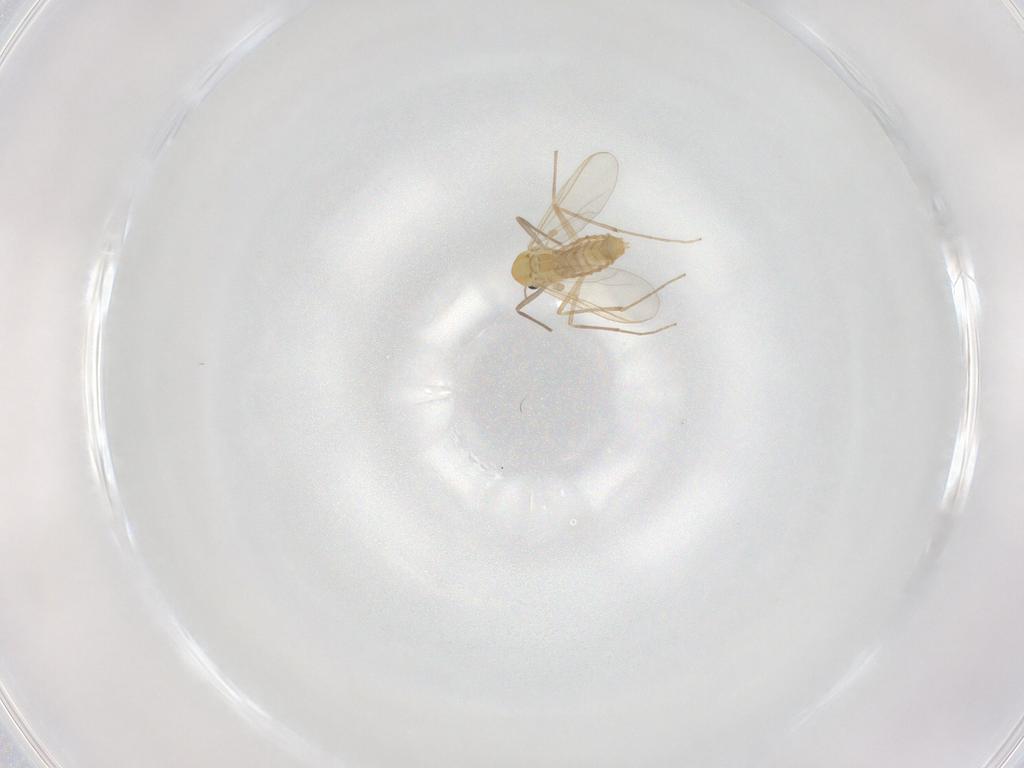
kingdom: Animalia
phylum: Arthropoda
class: Insecta
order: Diptera
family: Chironomidae
